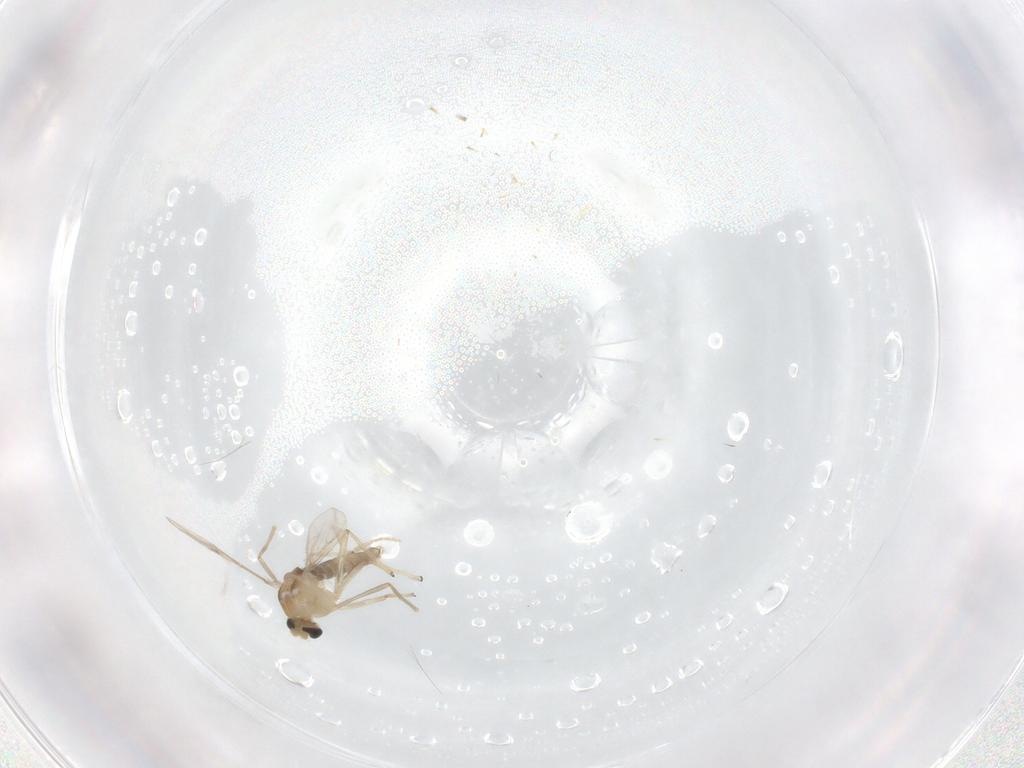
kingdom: Animalia
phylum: Arthropoda
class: Insecta
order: Diptera
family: Chironomidae
